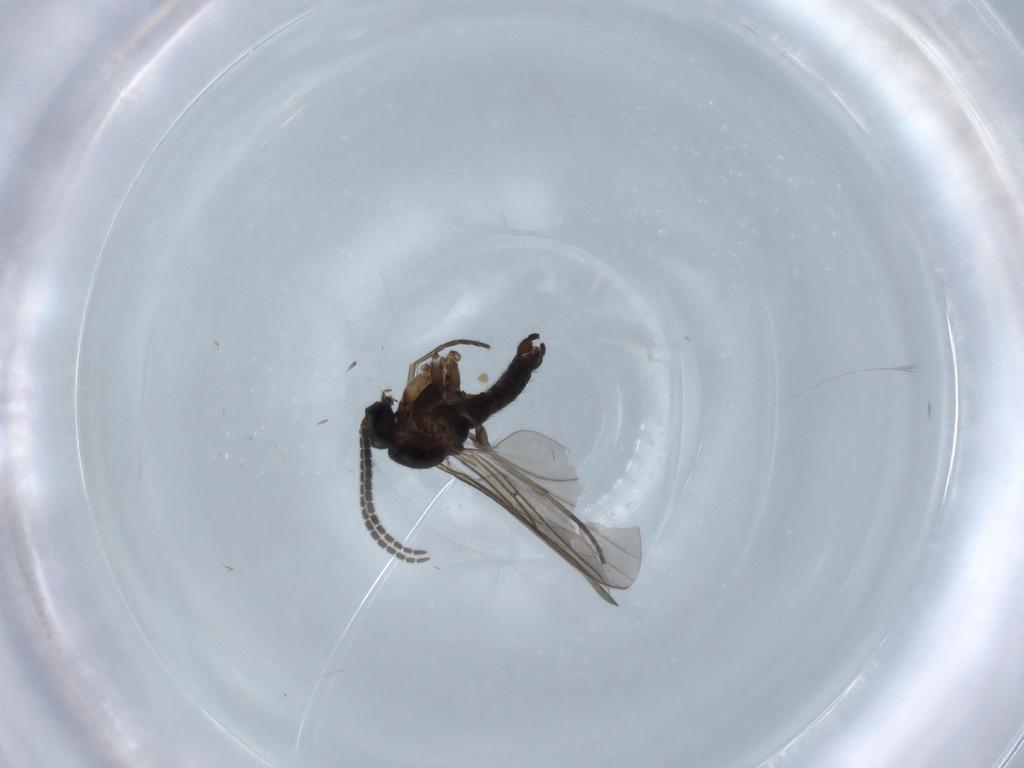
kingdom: Animalia
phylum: Arthropoda
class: Insecta
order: Diptera
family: Sciaridae
